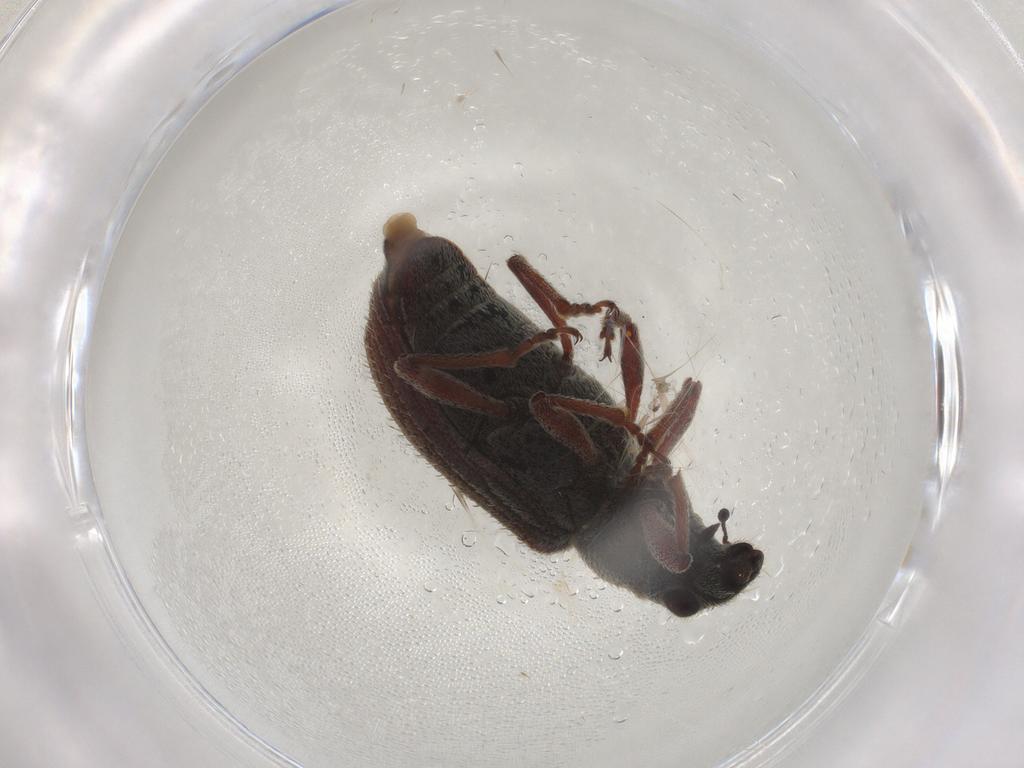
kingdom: Animalia
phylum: Arthropoda
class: Insecta
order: Coleoptera
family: Curculionidae
